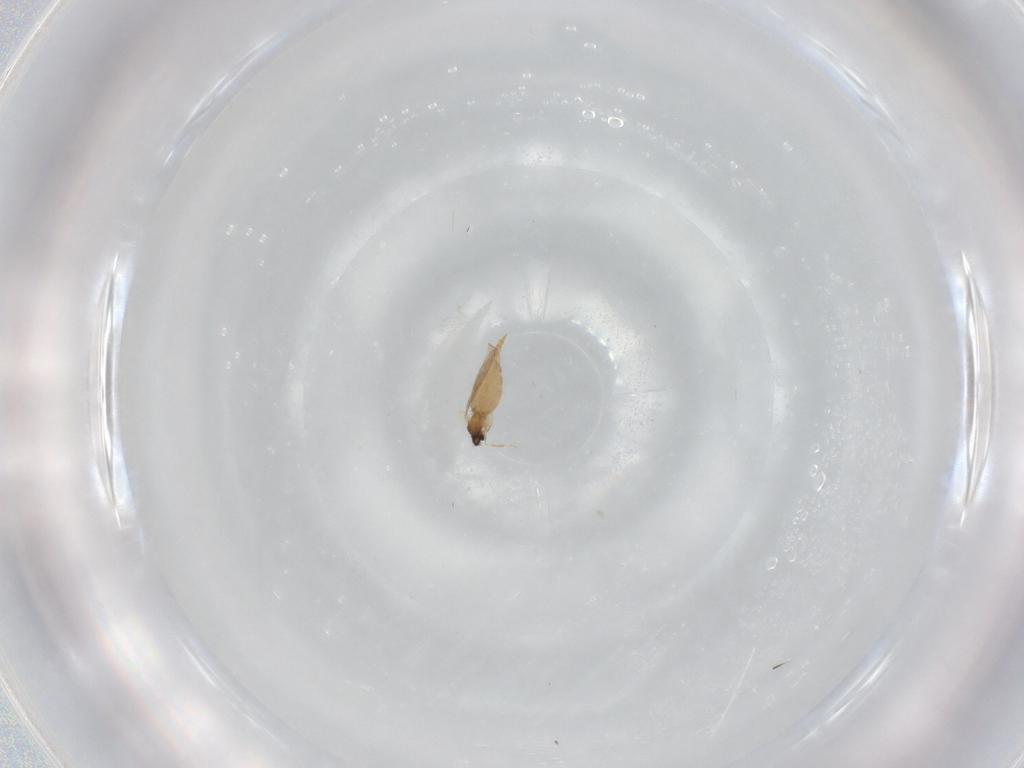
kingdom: Animalia
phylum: Arthropoda
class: Insecta
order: Diptera
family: Cecidomyiidae
